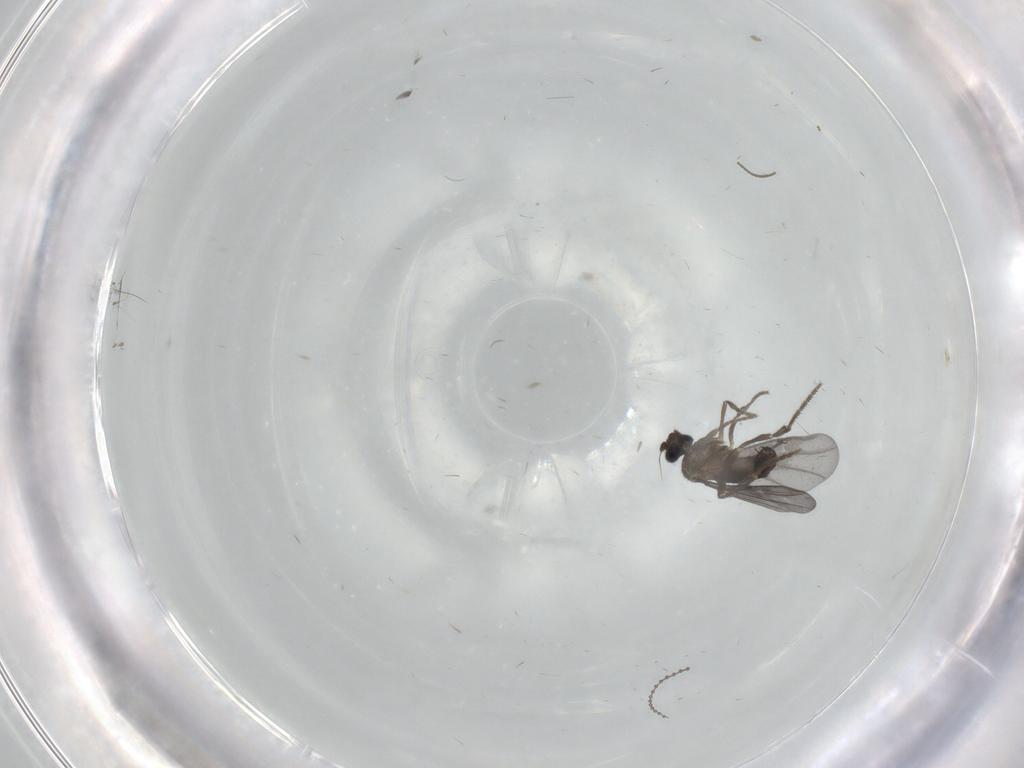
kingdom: Animalia
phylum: Arthropoda
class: Insecta
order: Diptera
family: Phoridae
